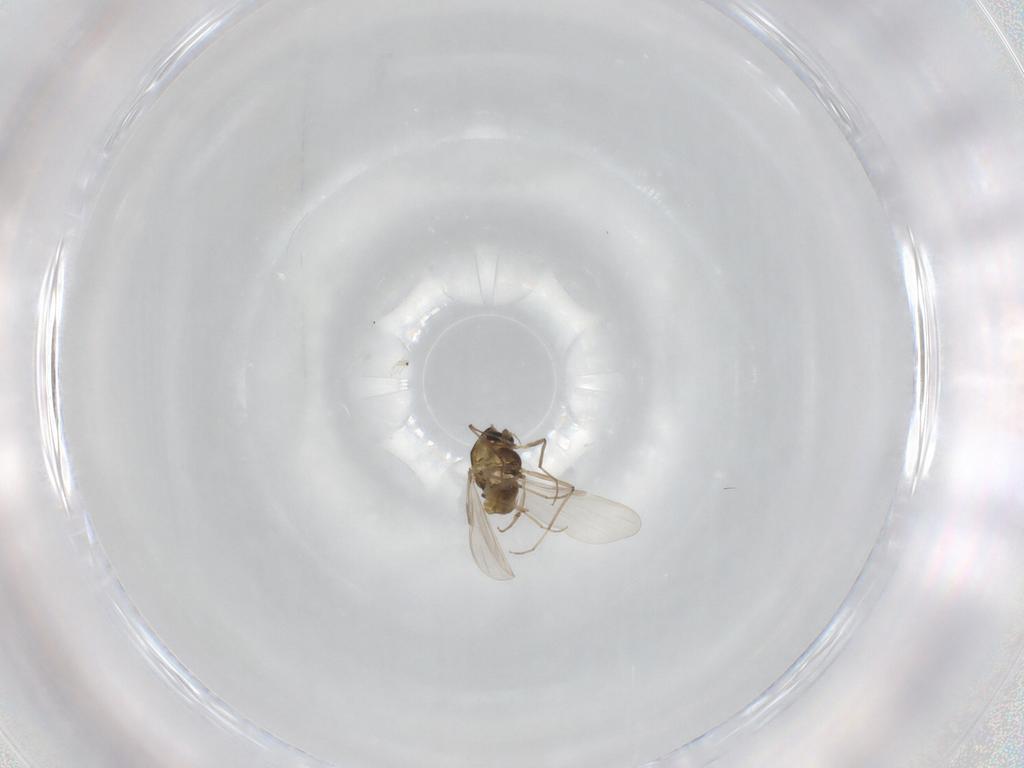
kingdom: Animalia
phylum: Arthropoda
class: Insecta
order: Diptera
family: Chironomidae
